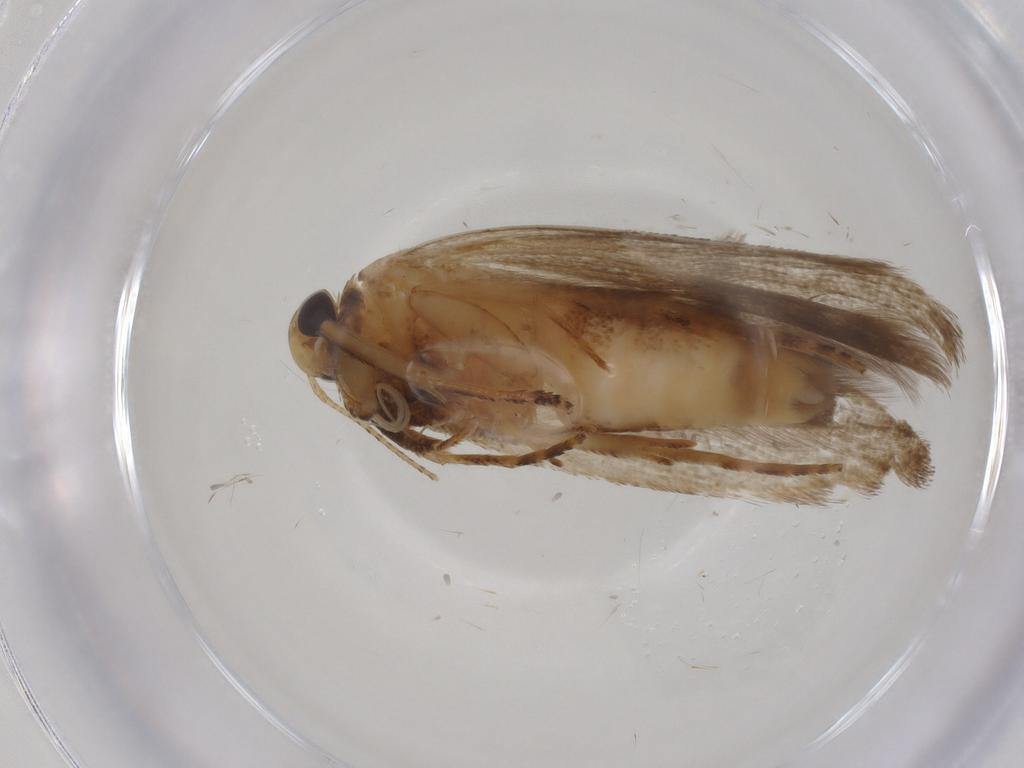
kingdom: Animalia
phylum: Arthropoda
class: Insecta
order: Lepidoptera
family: Gelechiidae
